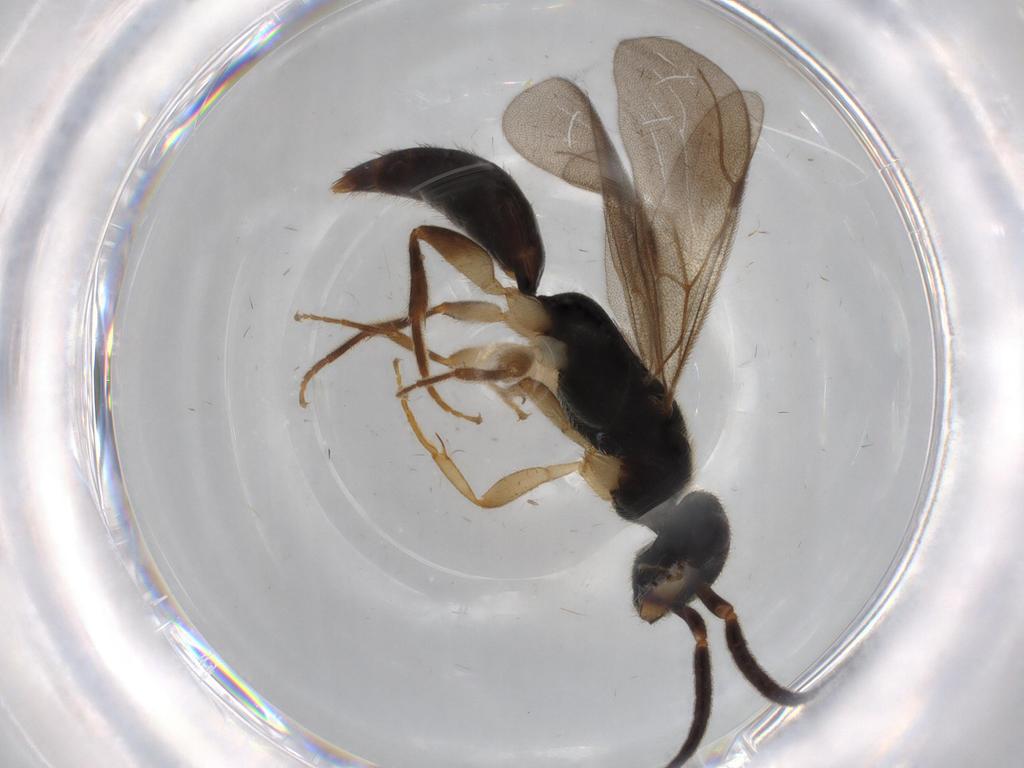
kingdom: Animalia
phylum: Arthropoda
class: Insecta
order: Hymenoptera
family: Bethylidae
